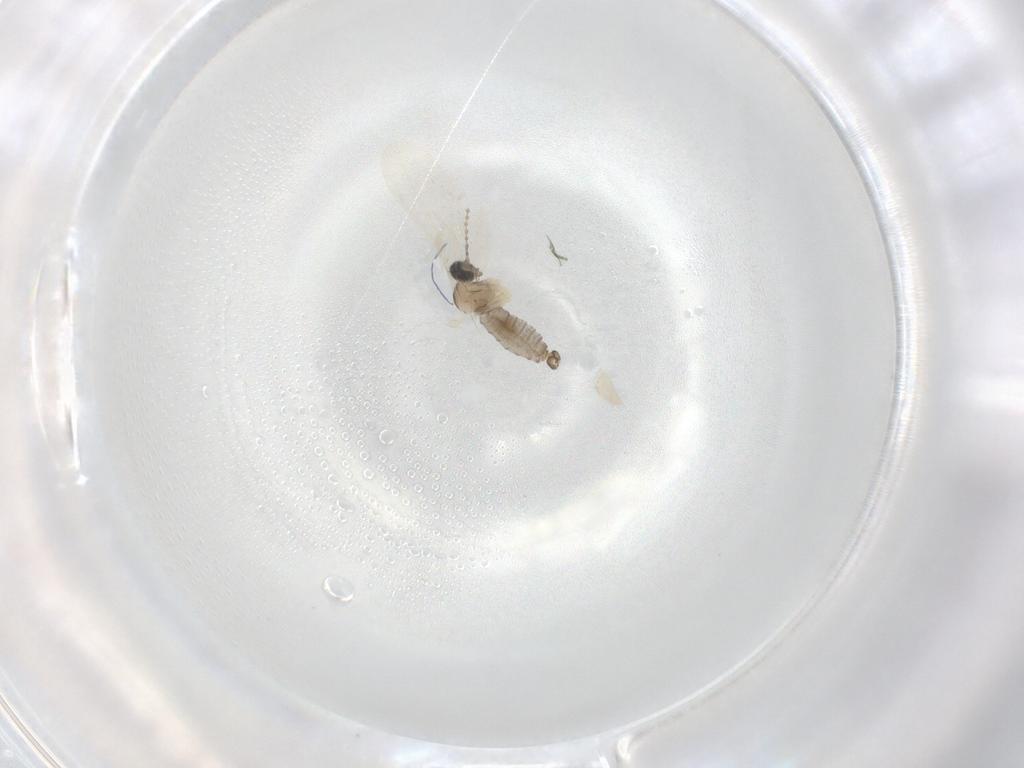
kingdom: Animalia
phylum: Arthropoda
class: Insecta
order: Diptera
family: Cecidomyiidae
